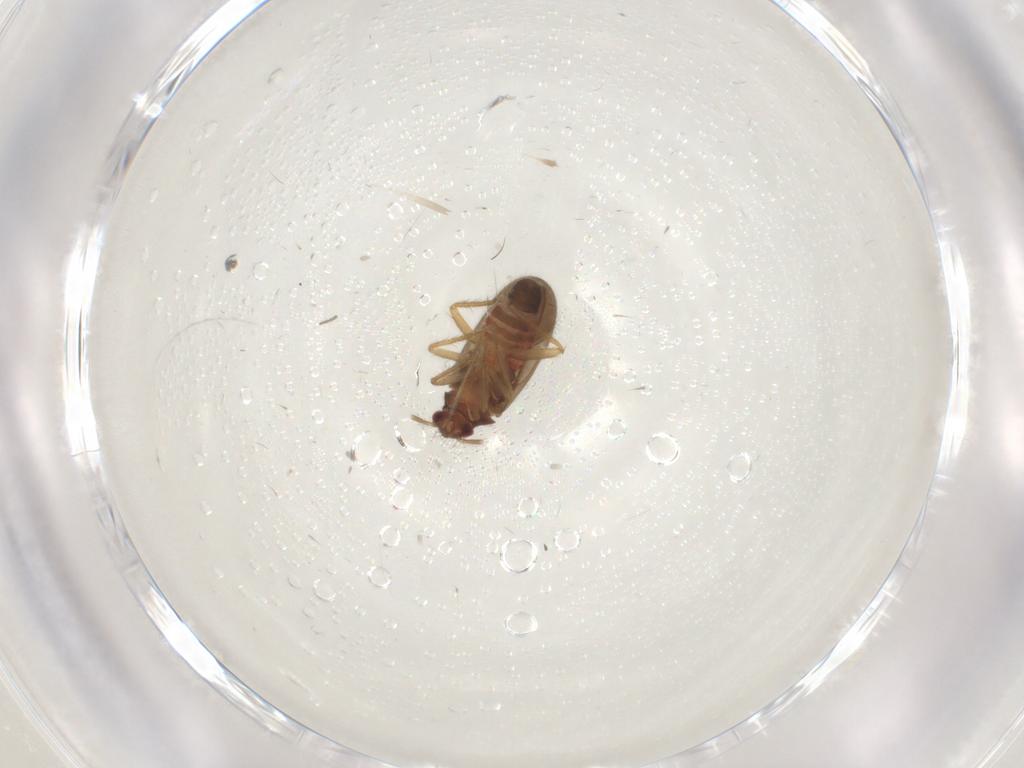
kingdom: Animalia
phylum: Arthropoda
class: Insecta
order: Hemiptera
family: Ceratocombidae
